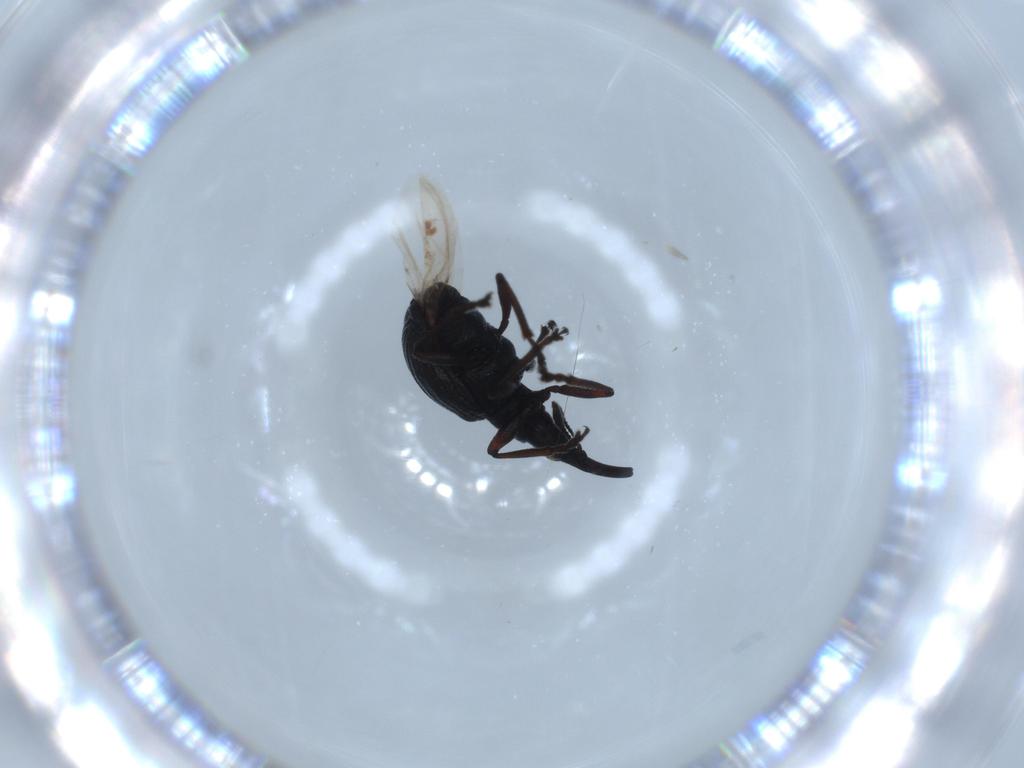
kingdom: Animalia
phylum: Arthropoda
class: Insecta
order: Coleoptera
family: Brentidae
